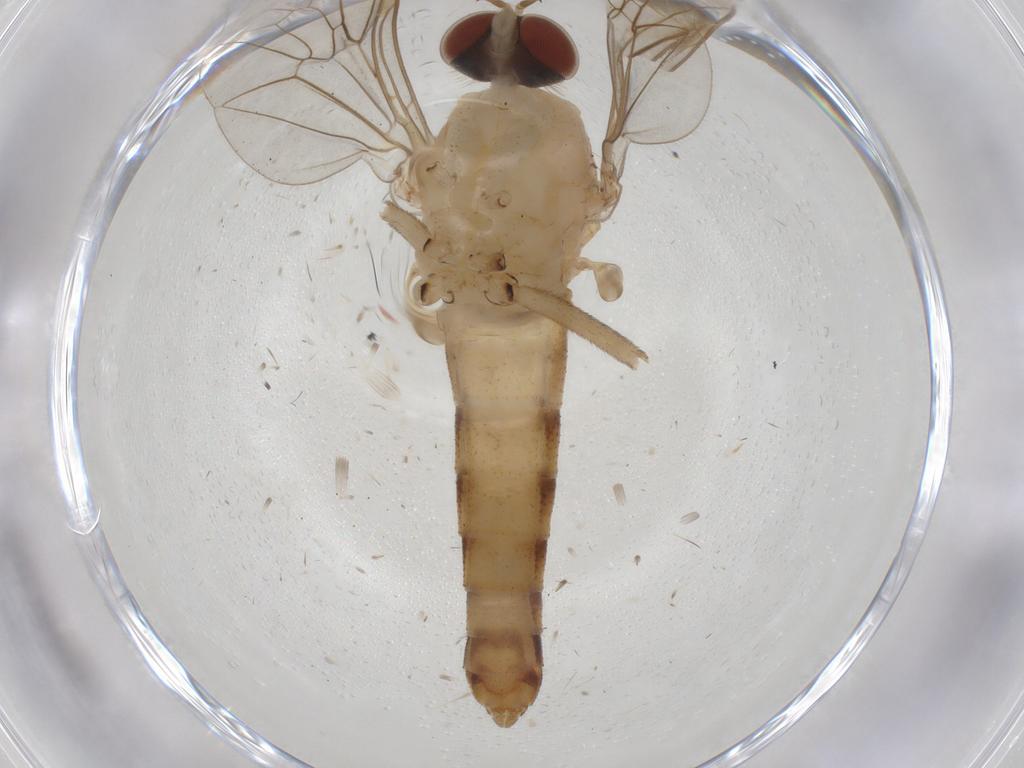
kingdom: Animalia
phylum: Arthropoda
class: Insecta
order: Diptera
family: Apsilocephalidae
